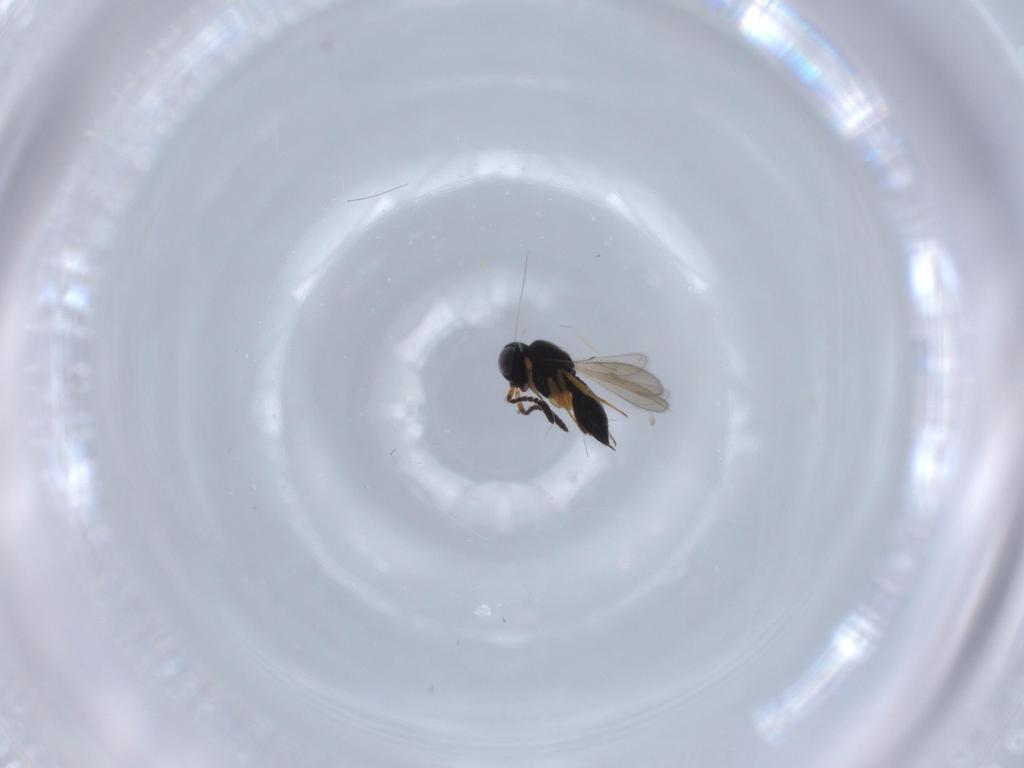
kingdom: Animalia
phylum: Arthropoda
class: Insecta
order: Hymenoptera
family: Scelionidae
